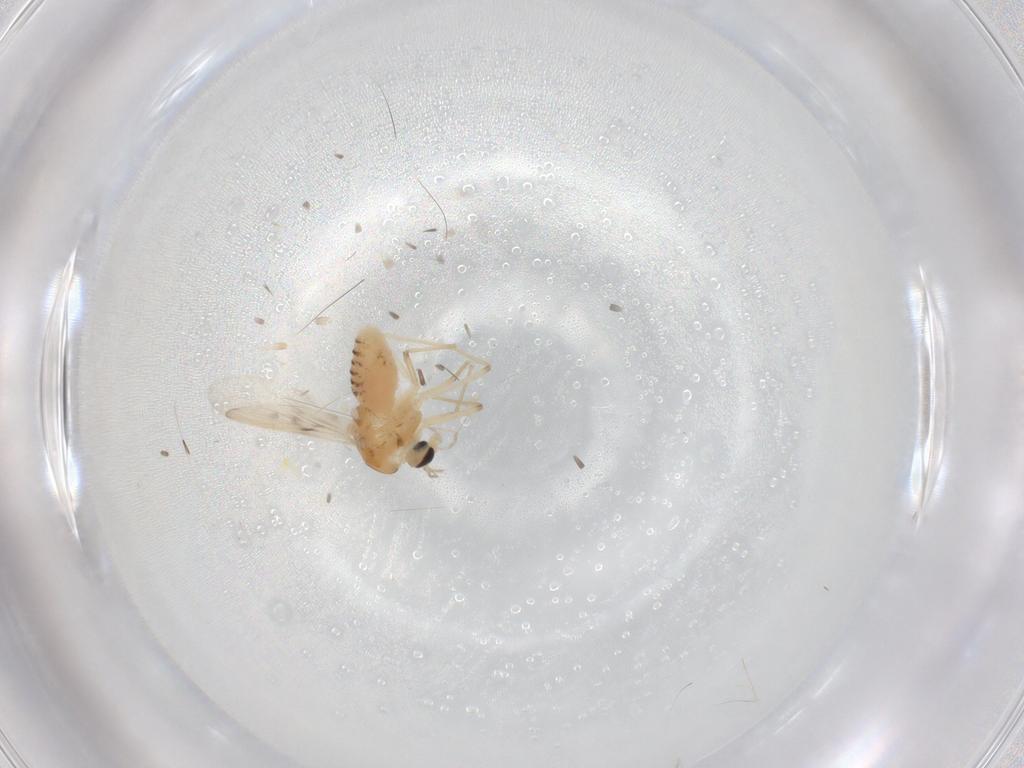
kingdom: Animalia
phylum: Arthropoda
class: Insecta
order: Diptera
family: Chironomidae
